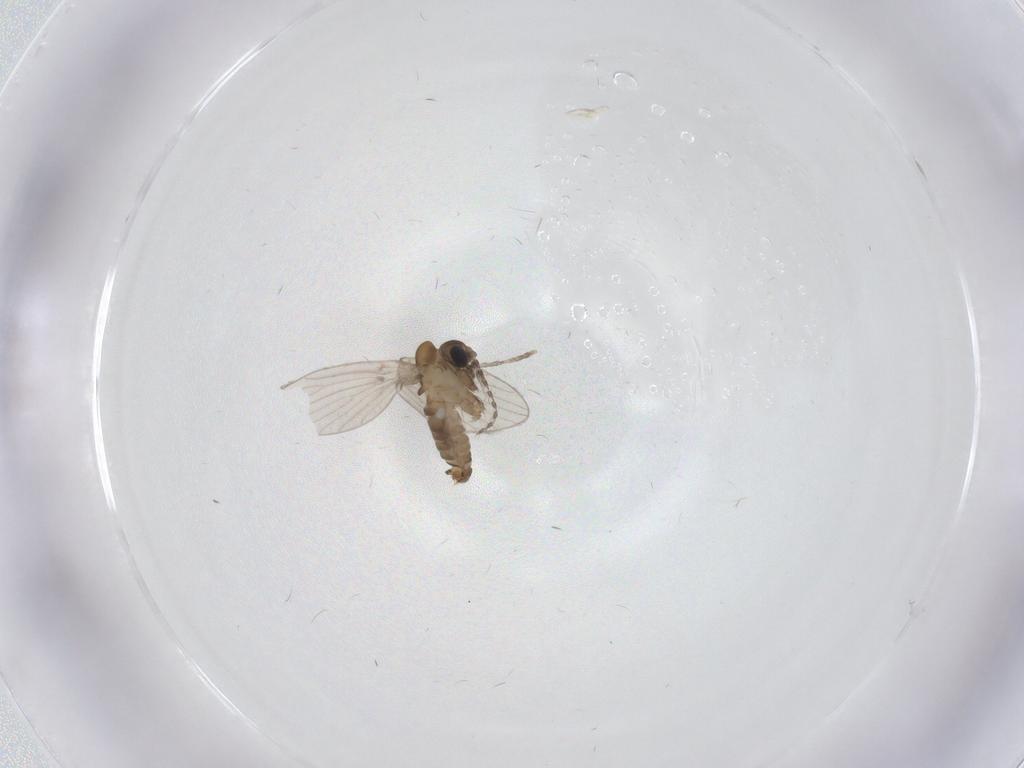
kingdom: Animalia
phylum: Arthropoda
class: Insecta
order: Diptera
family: Psychodidae
